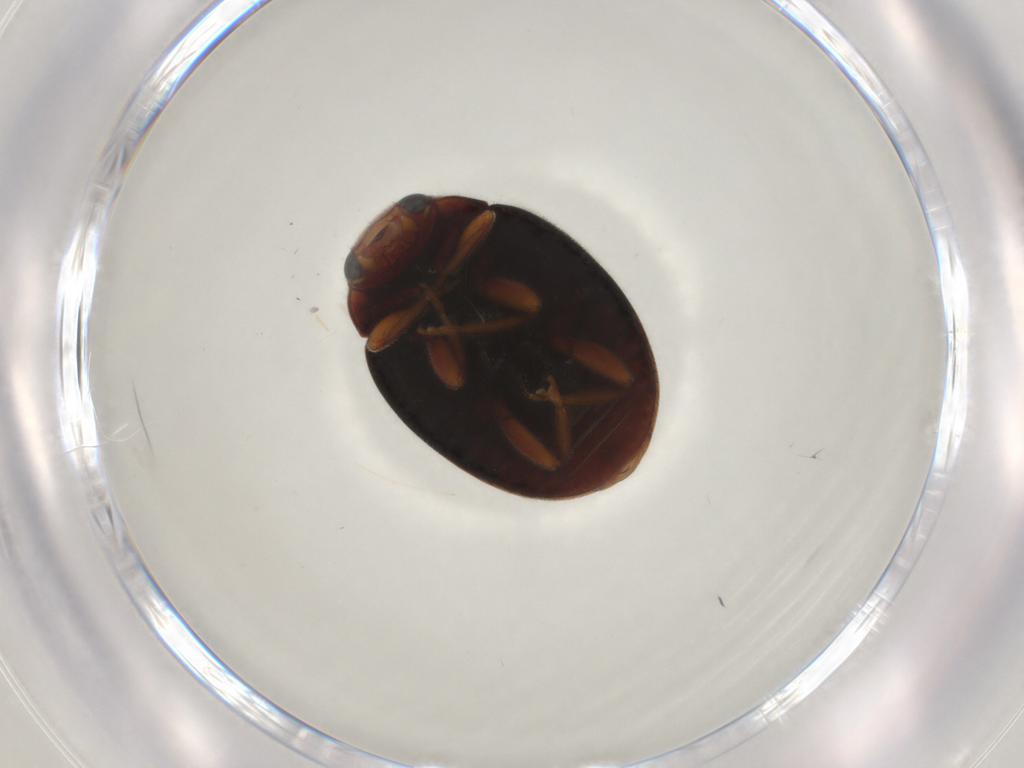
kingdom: Animalia
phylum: Arthropoda
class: Insecta
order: Coleoptera
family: Coccinellidae
